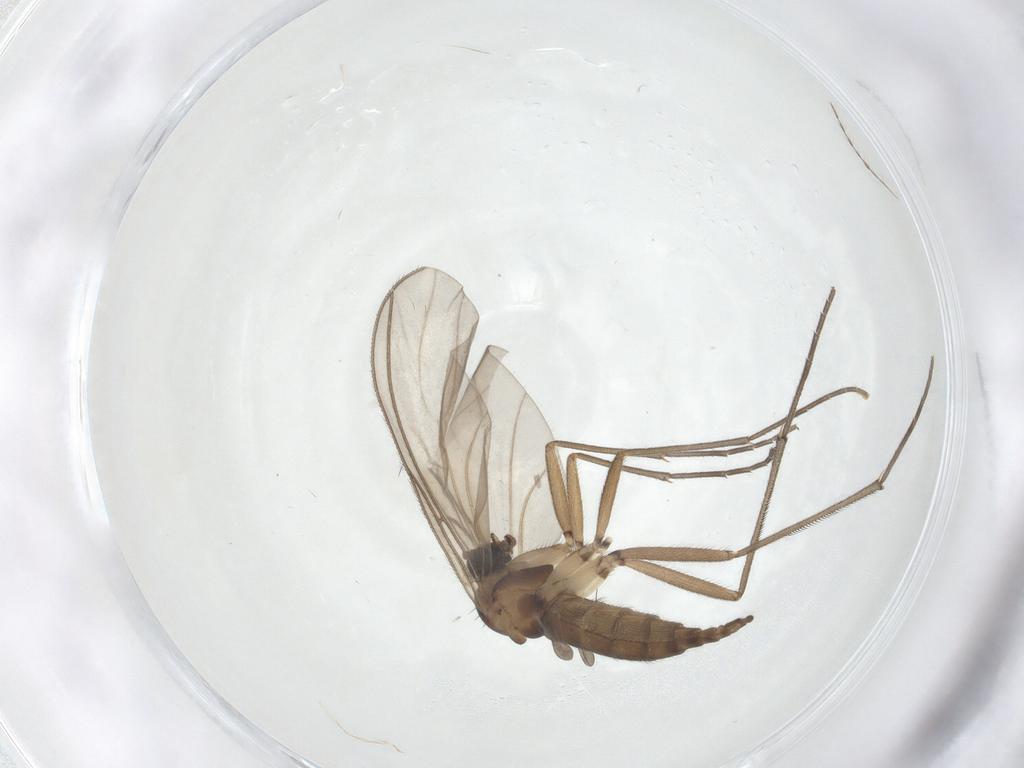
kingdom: Animalia
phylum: Arthropoda
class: Insecta
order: Diptera
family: Sciaridae
